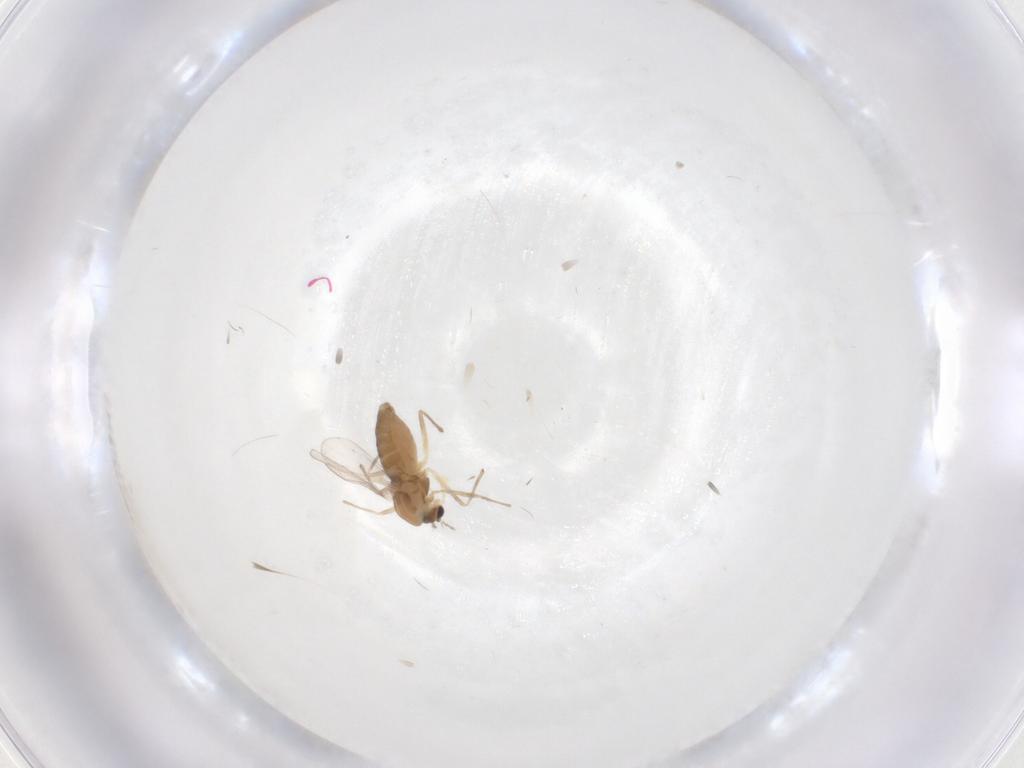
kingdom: Animalia
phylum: Arthropoda
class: Insecta
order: Diptera
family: Chironomidae
